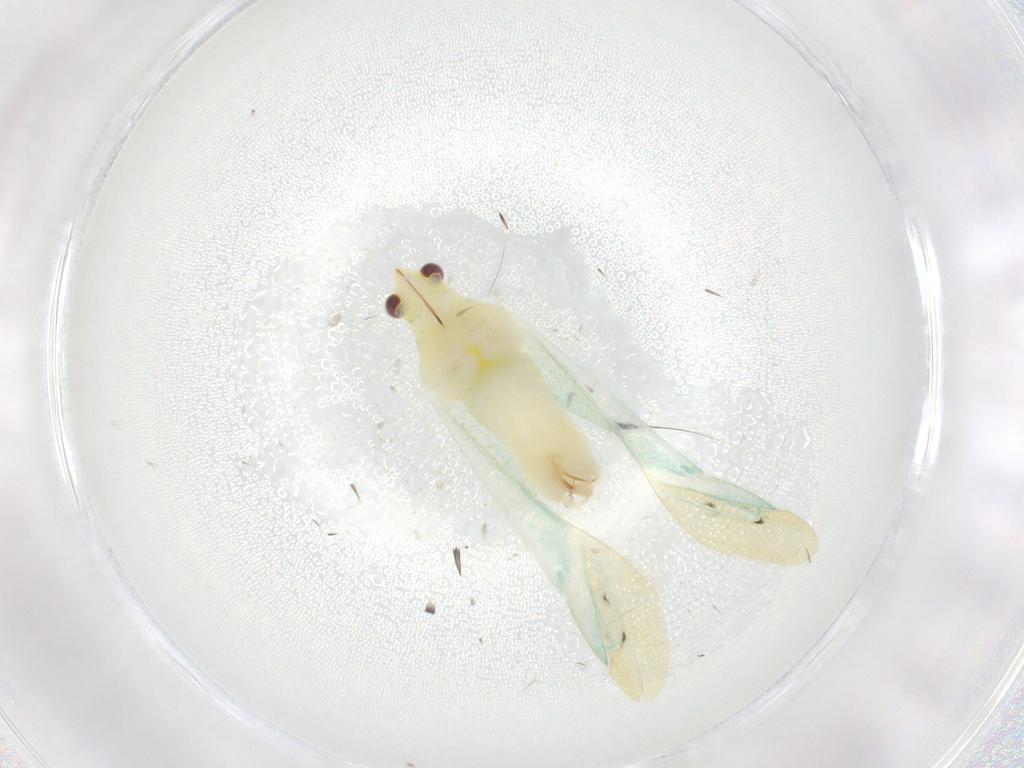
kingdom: Animalia
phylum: Arthropoda
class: Insecta
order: Hemiptera
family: Miridae
